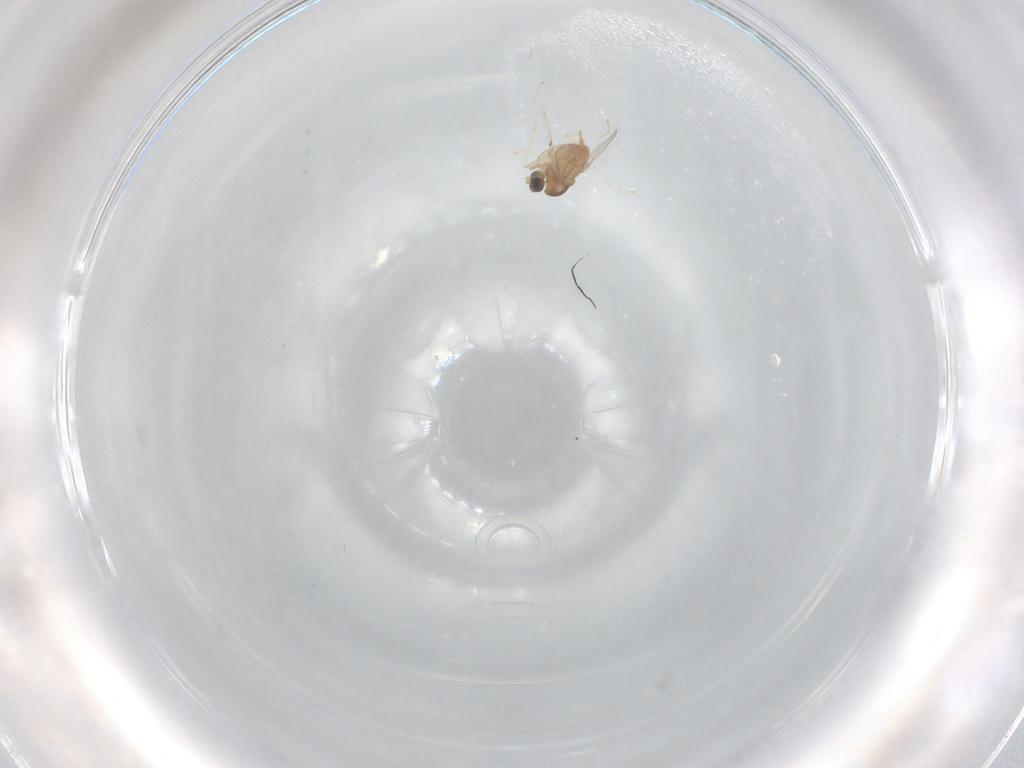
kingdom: Animalia
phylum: Arthropoda
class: Insecta
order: Diptera
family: Cecidomyiidae
